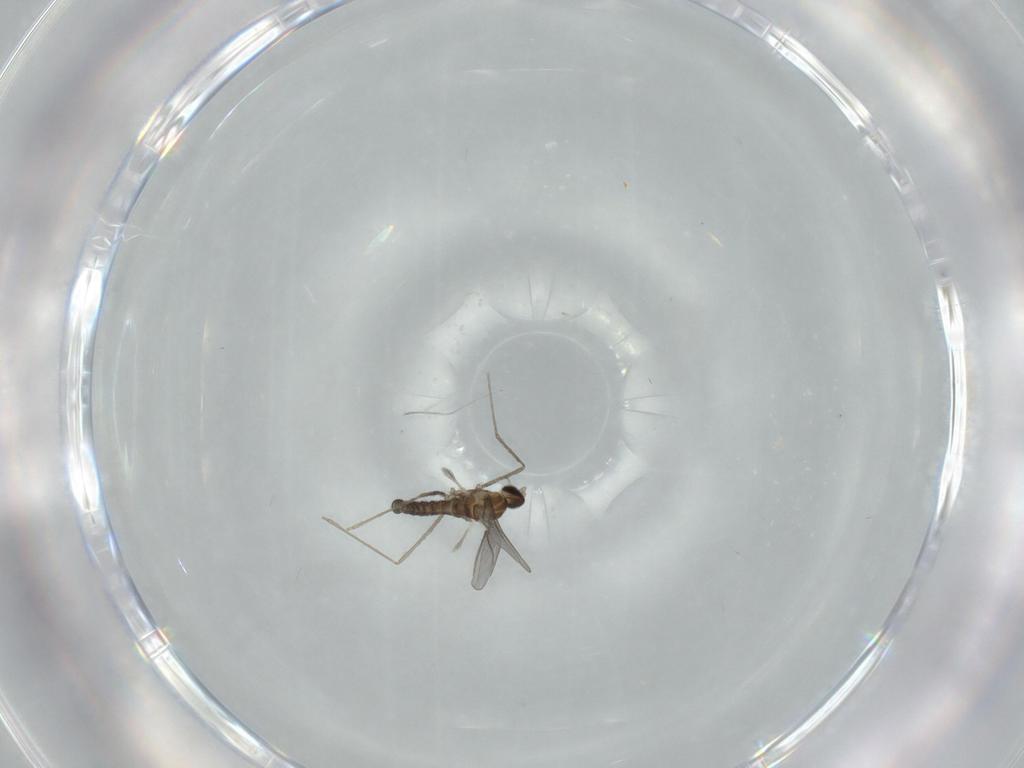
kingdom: Animalia
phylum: Arthropoda
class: Insecta
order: Diptera
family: Cecidomyiidae
